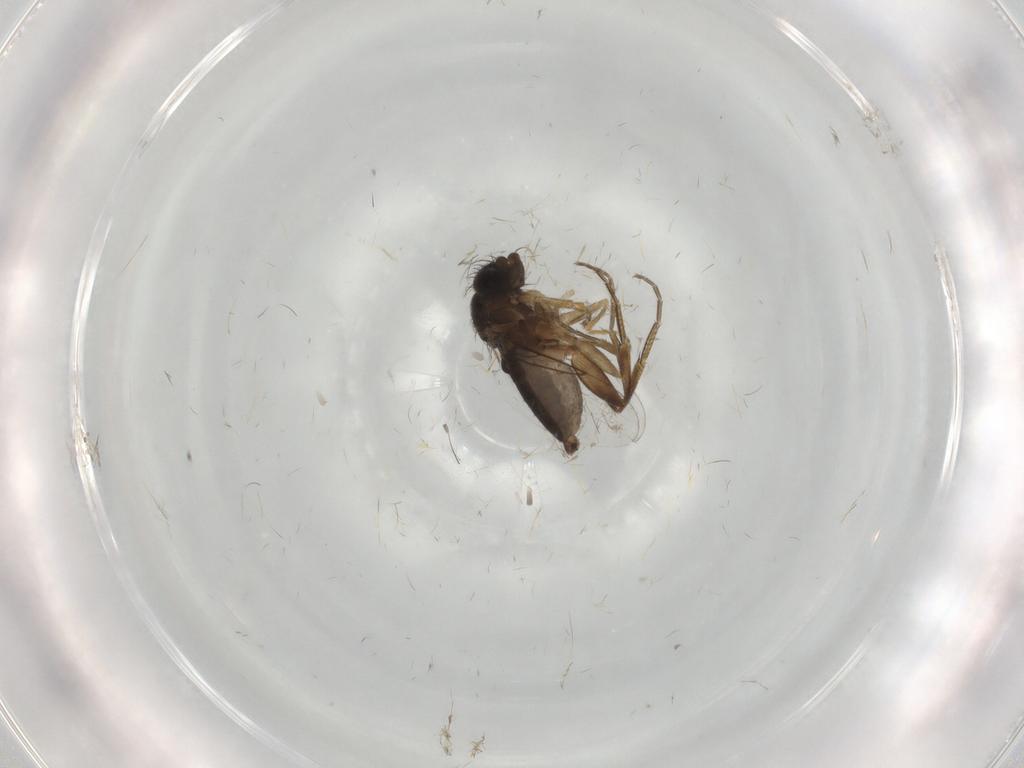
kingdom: Animalia
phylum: Arthropoda
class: Insecta
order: Diptera
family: Phoridae
